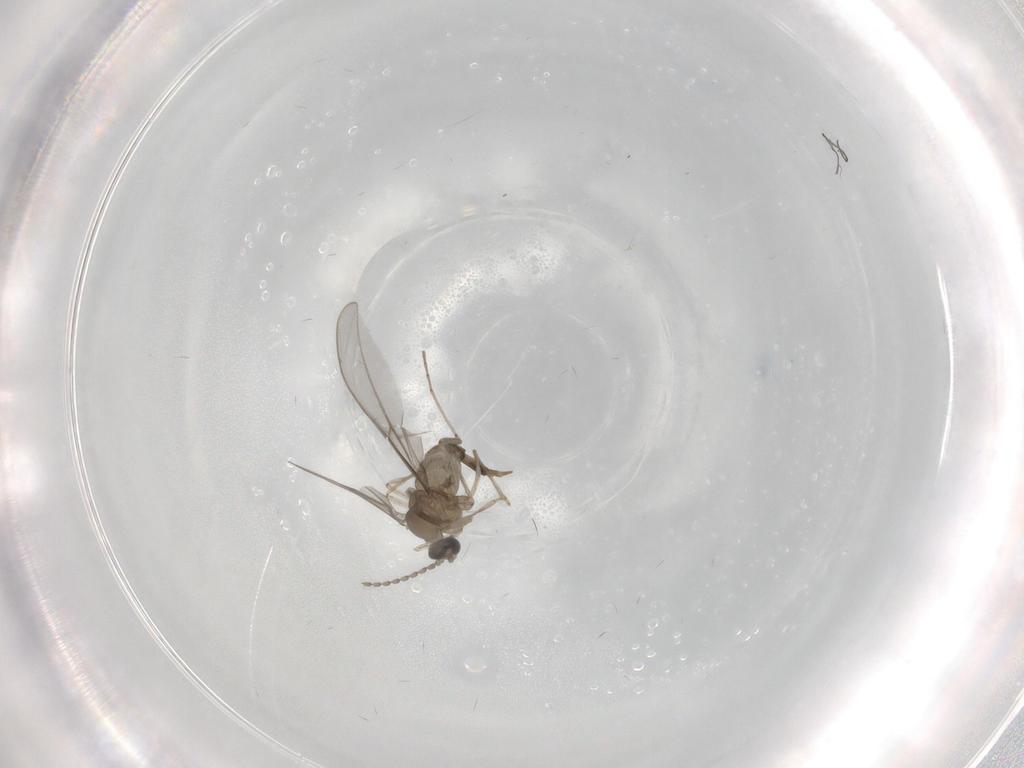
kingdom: Animalia
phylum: Arthropoda
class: Insecta
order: Diptera
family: Cecidomyiidae
